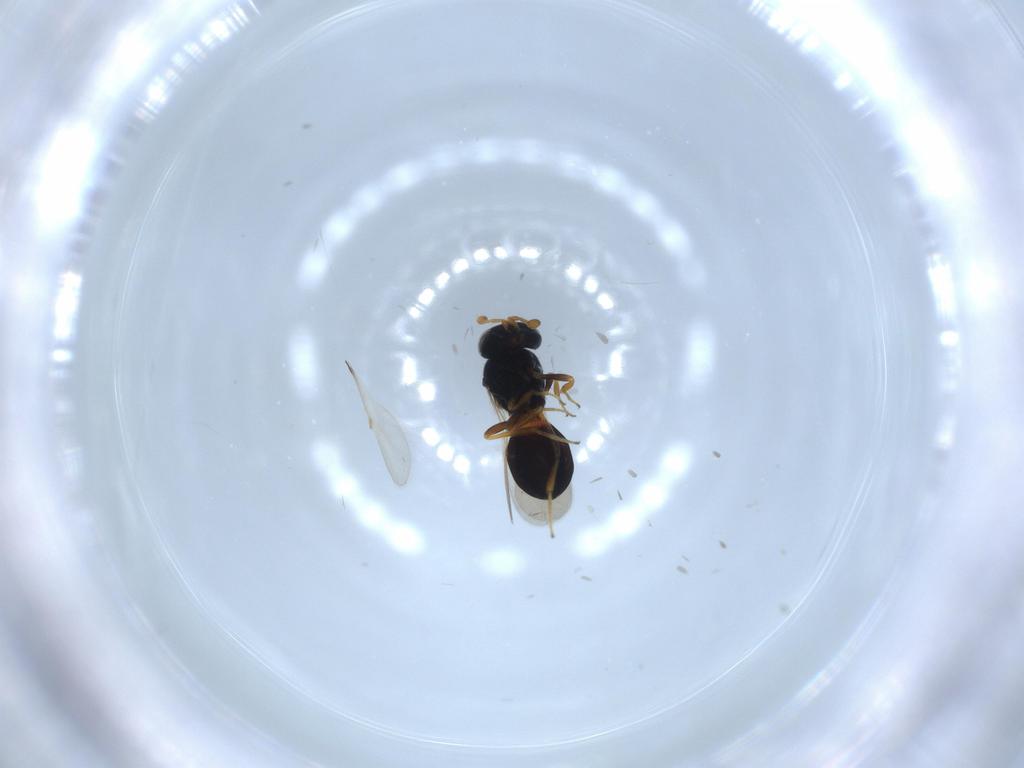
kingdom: Animalia
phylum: Arthropoda
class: Insecta
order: Hymenoptera
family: Scelionidae
